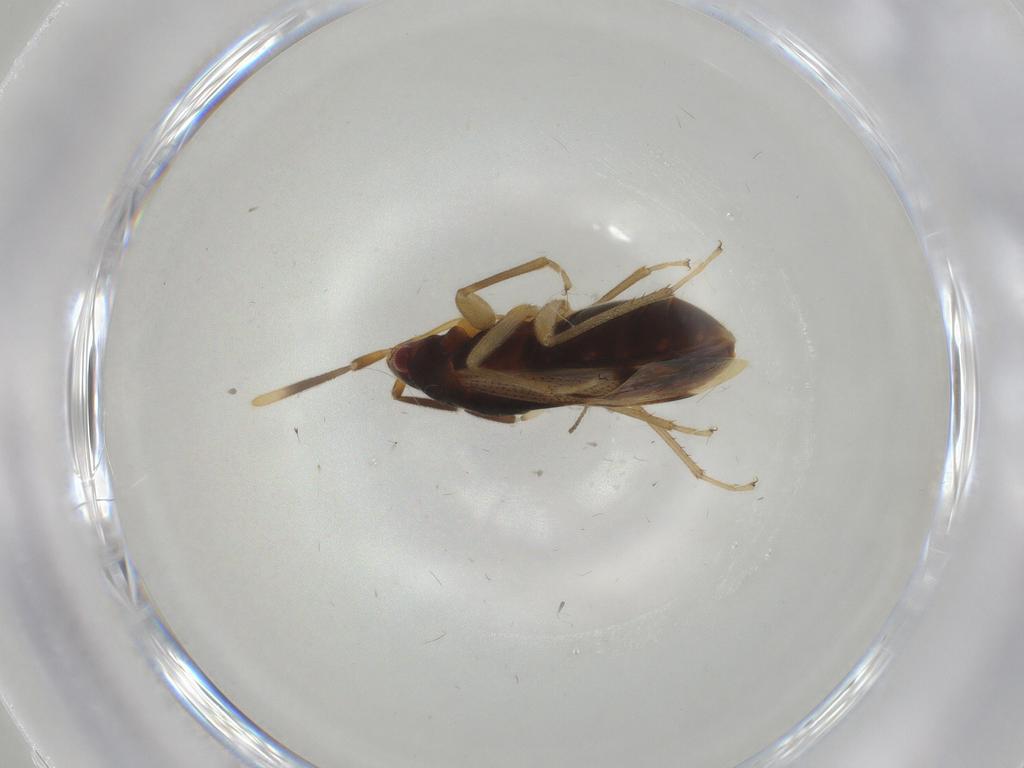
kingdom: Animalia
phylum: Arthropoda
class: Insecta
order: Hemiptera
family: Rhyparochromidae
